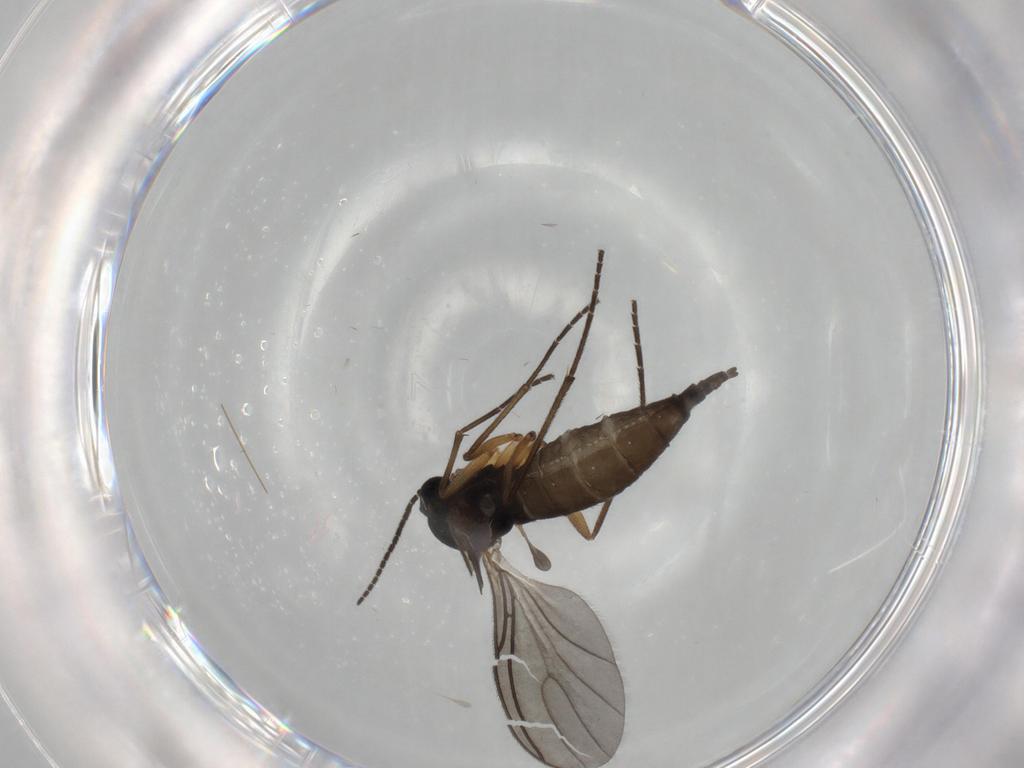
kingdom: Animalia
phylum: Arthropoda
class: Insecta
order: Diptera
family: Sciaridae
